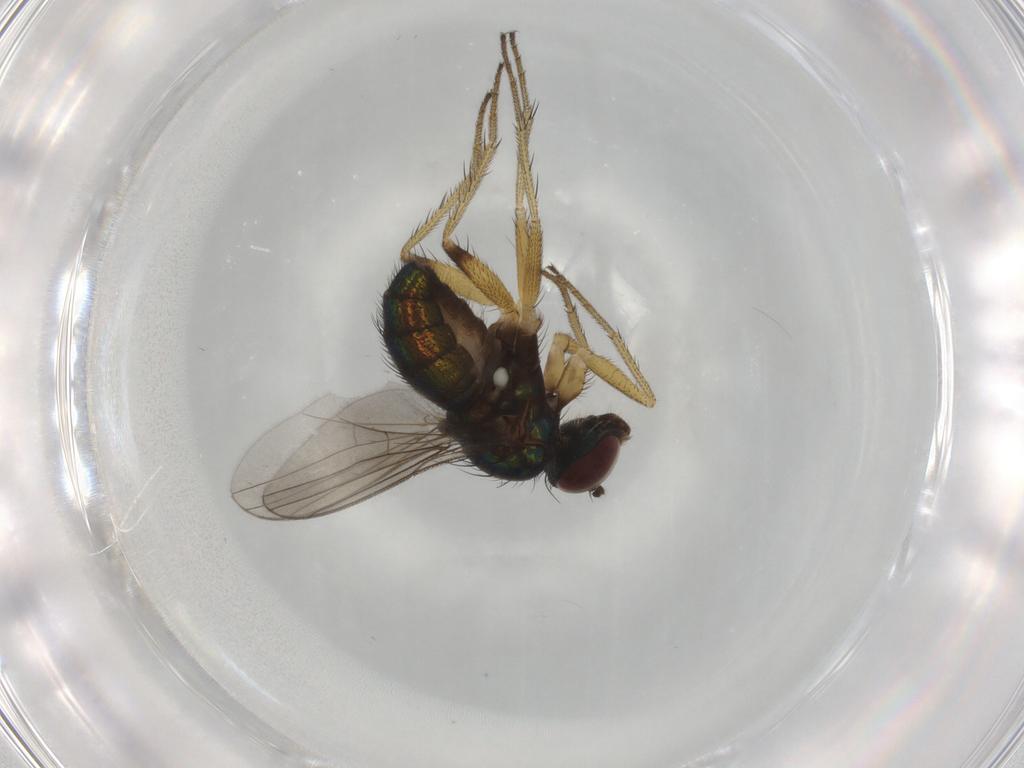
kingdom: Animalia
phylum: Arthropoda
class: Insecta
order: Diptera
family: Dolichopodidae
